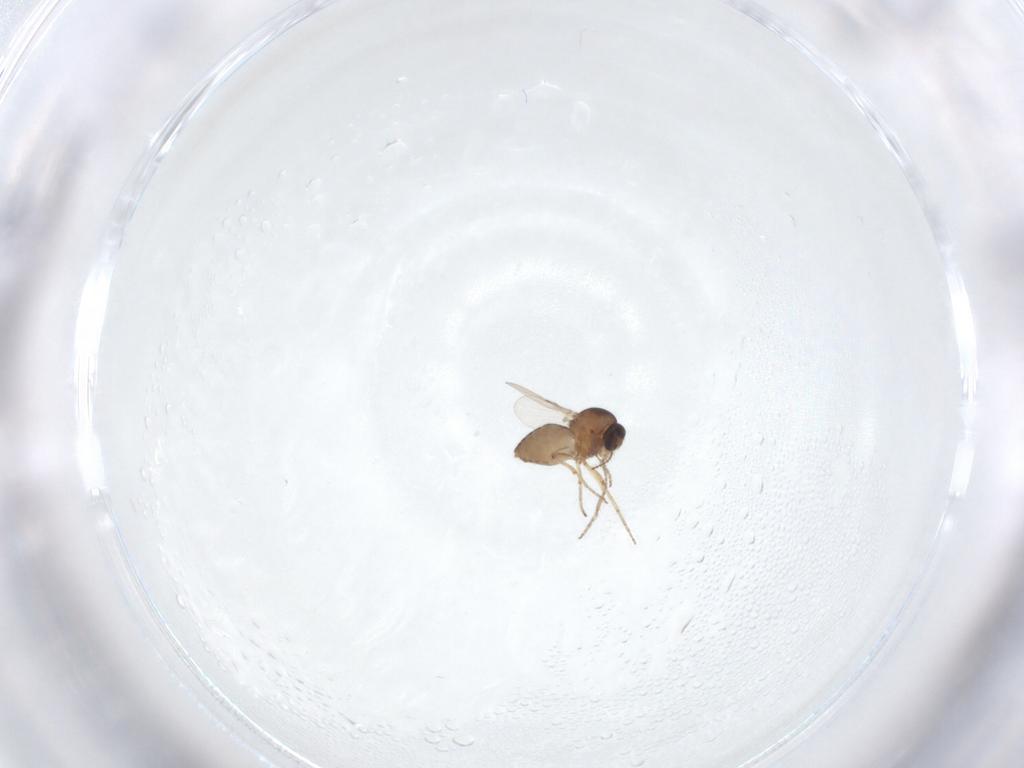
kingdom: Animalia
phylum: Arthropoda
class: Insecta
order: Diptera
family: Ceratopogonidae
